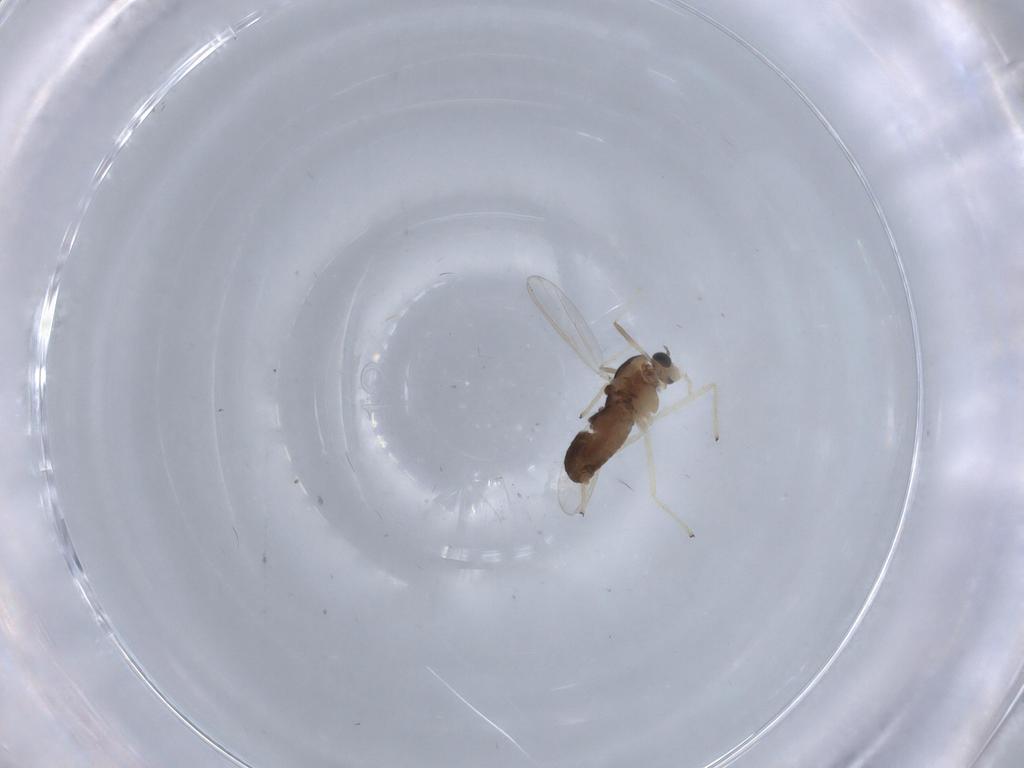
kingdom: Animalia
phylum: Arthropoda
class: Insecta
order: Diptera
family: Chironomidae
